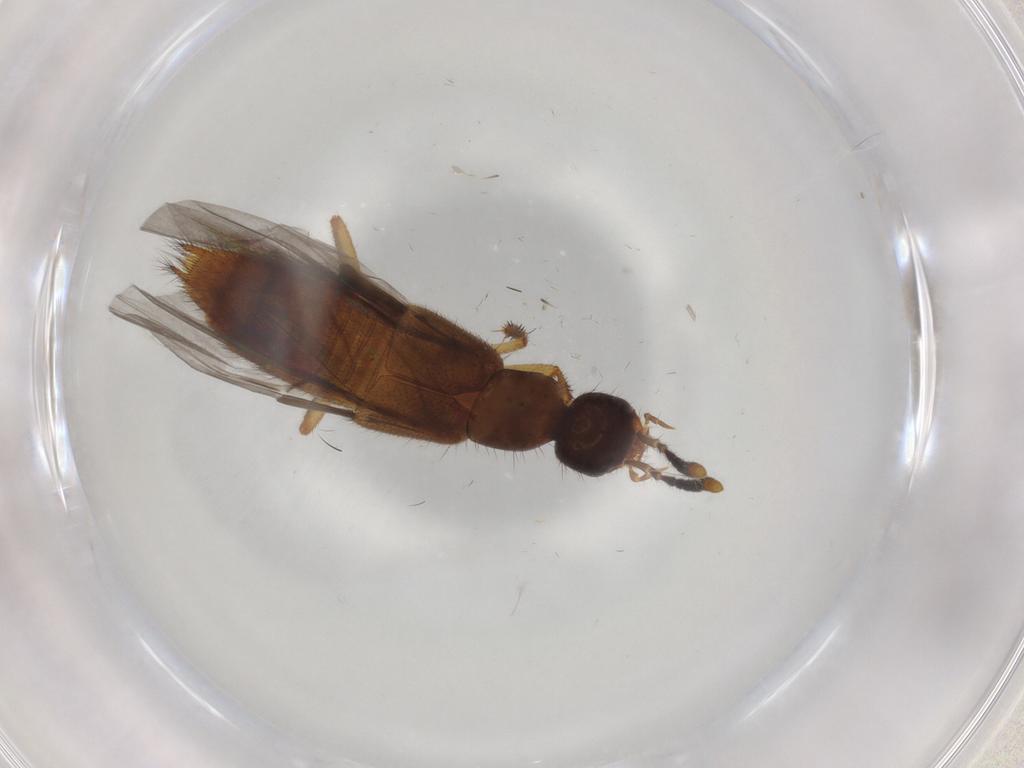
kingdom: Animalia
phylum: Arthropoda
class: Insecta
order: Coleoptera
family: Staphylinidae
